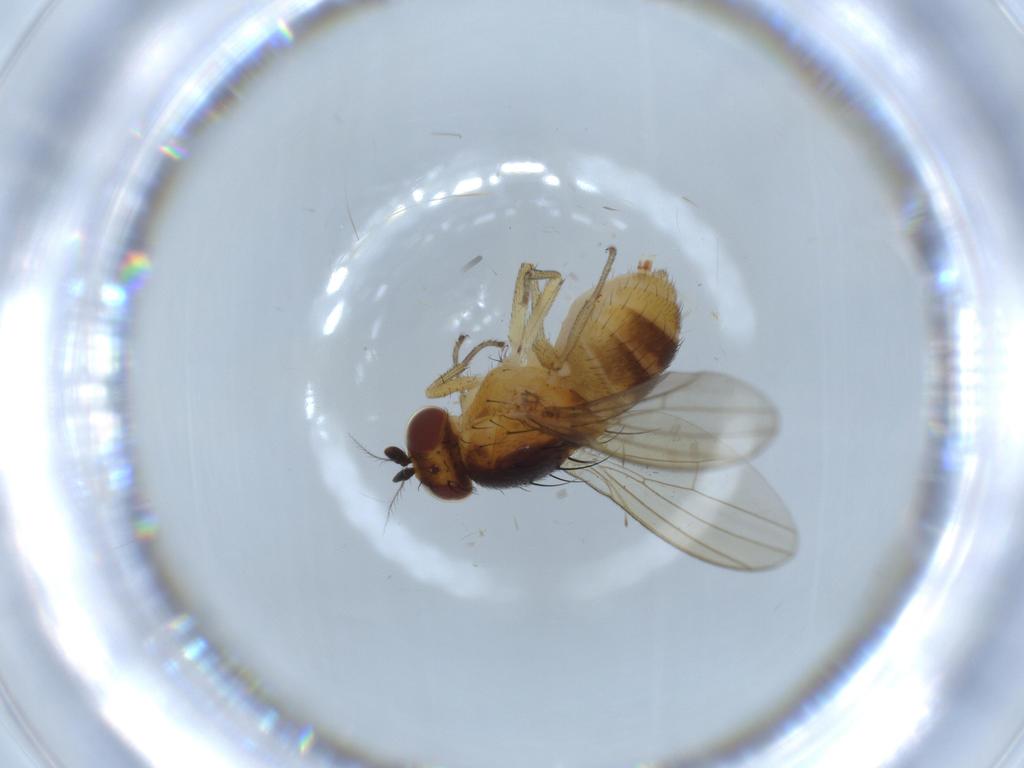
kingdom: Animalia
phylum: Arthropoda
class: Insecta
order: Diptera
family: Lauxaniidae
